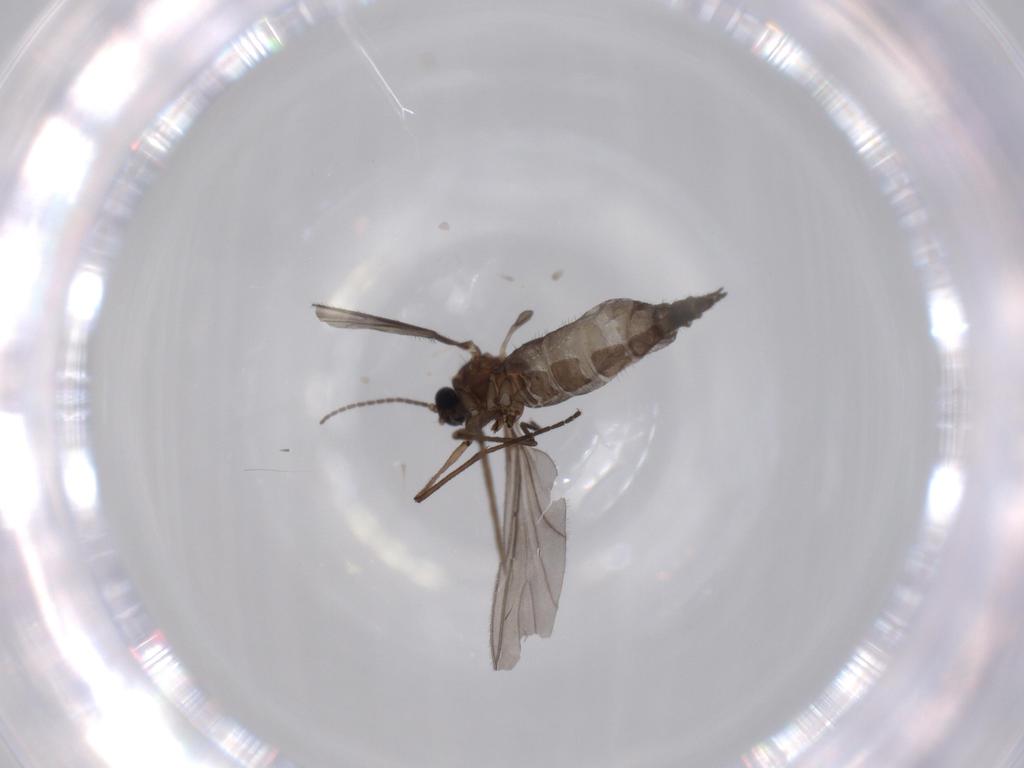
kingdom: Animalia
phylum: Arthropoda
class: Insecta
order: Diptera
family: Sciaridae
